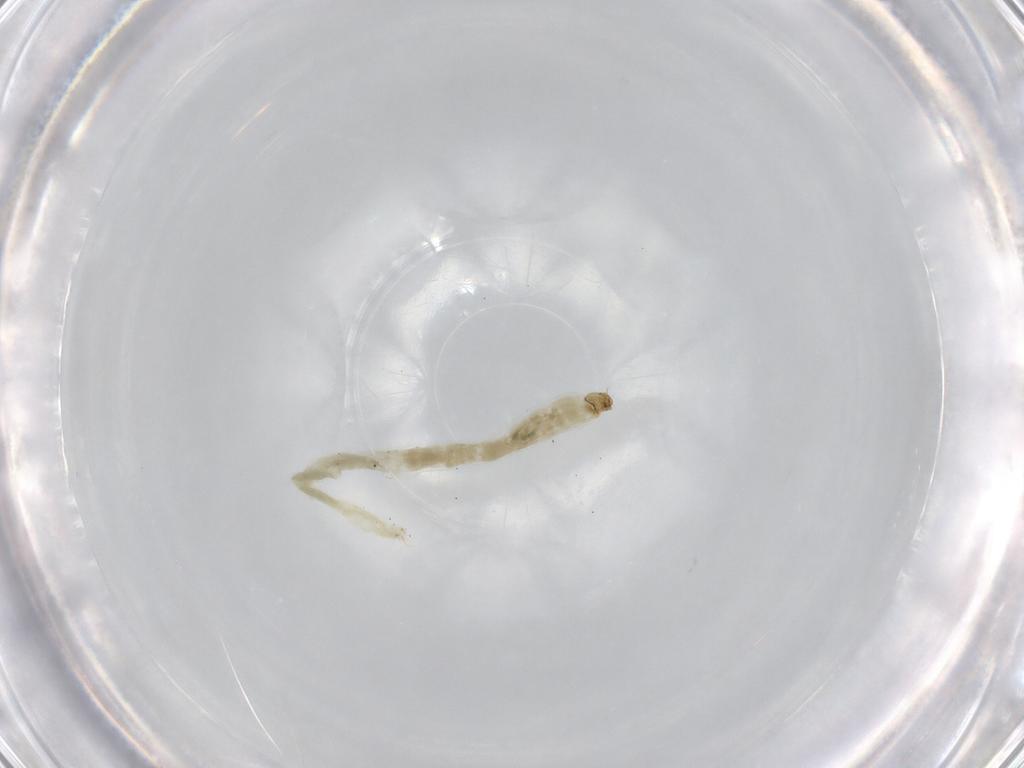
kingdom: Animalia
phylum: Arthropoda
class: Insecta
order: Diptera
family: Chironomidae
